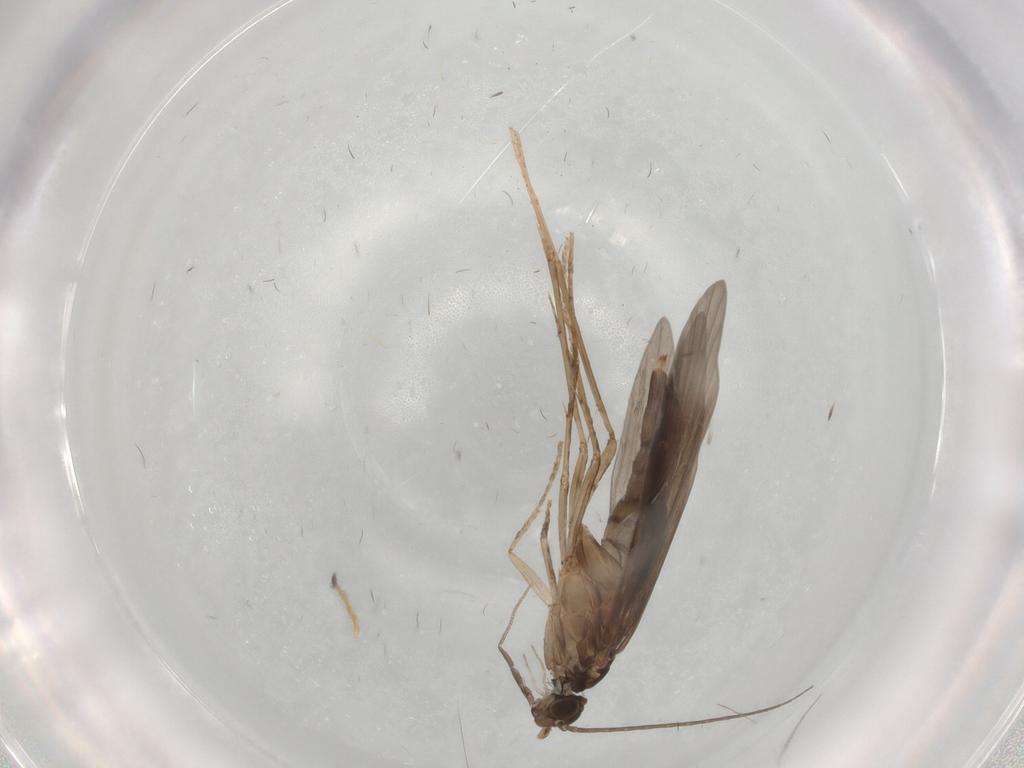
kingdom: Animalia
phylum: Arthropoda
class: Insecta
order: Trichoptera
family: Xiphocentronidae
